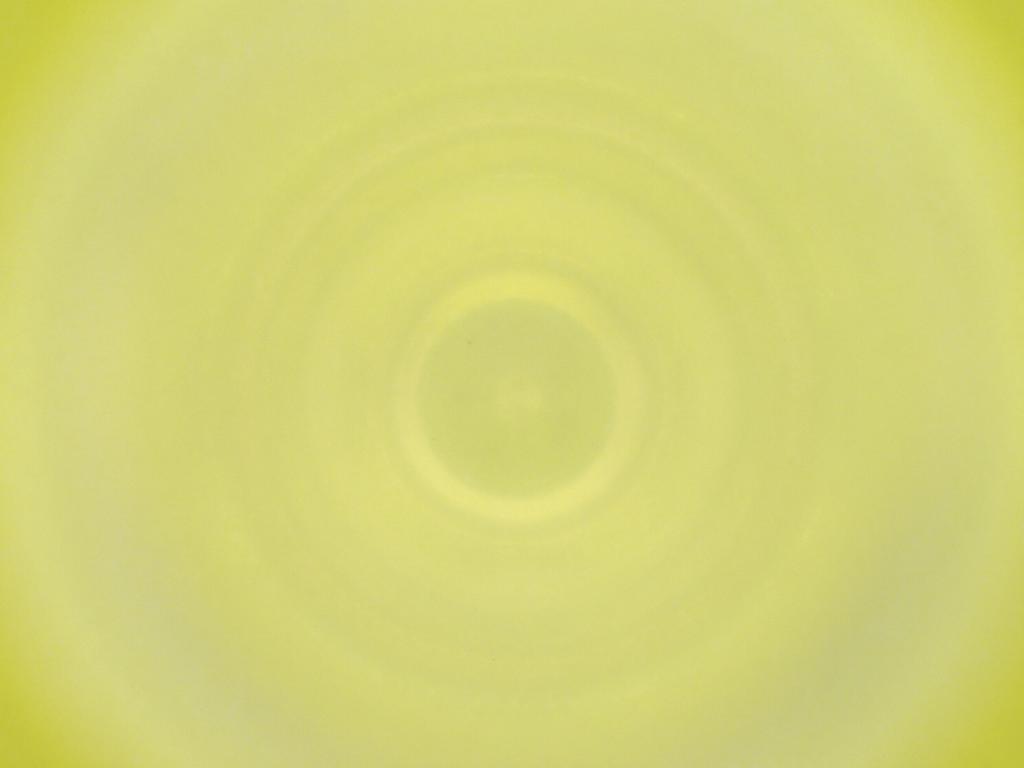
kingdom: Animalia
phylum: Arthropoda
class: Insecta
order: Diptera
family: Cecidomyiidae
